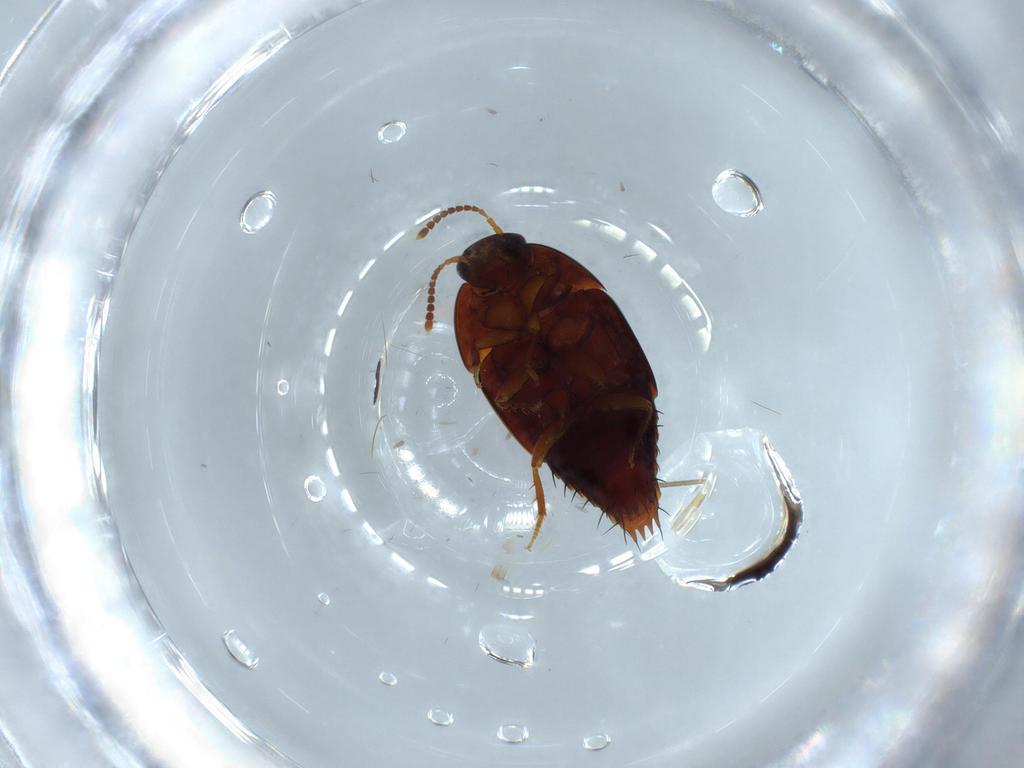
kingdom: Animalia
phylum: Arthropoda
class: Insecta
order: Coleoptera
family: Staphylinidae
